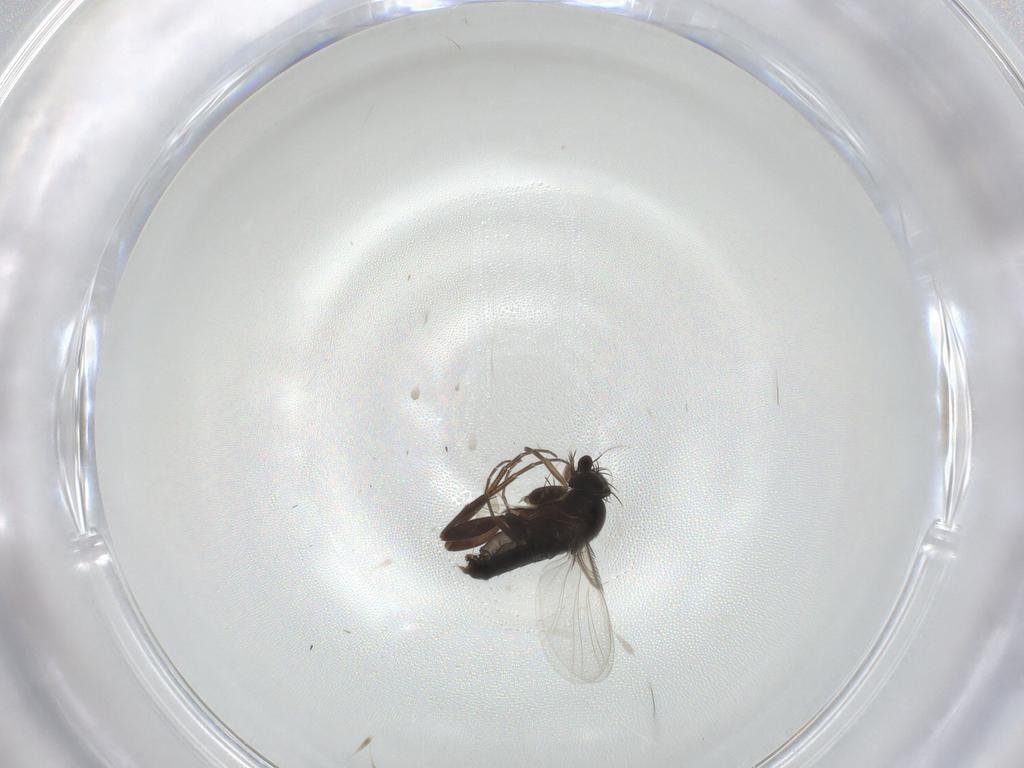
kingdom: Animalia
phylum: Arthropoda
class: Insecta
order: Diptera
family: Phoridae
